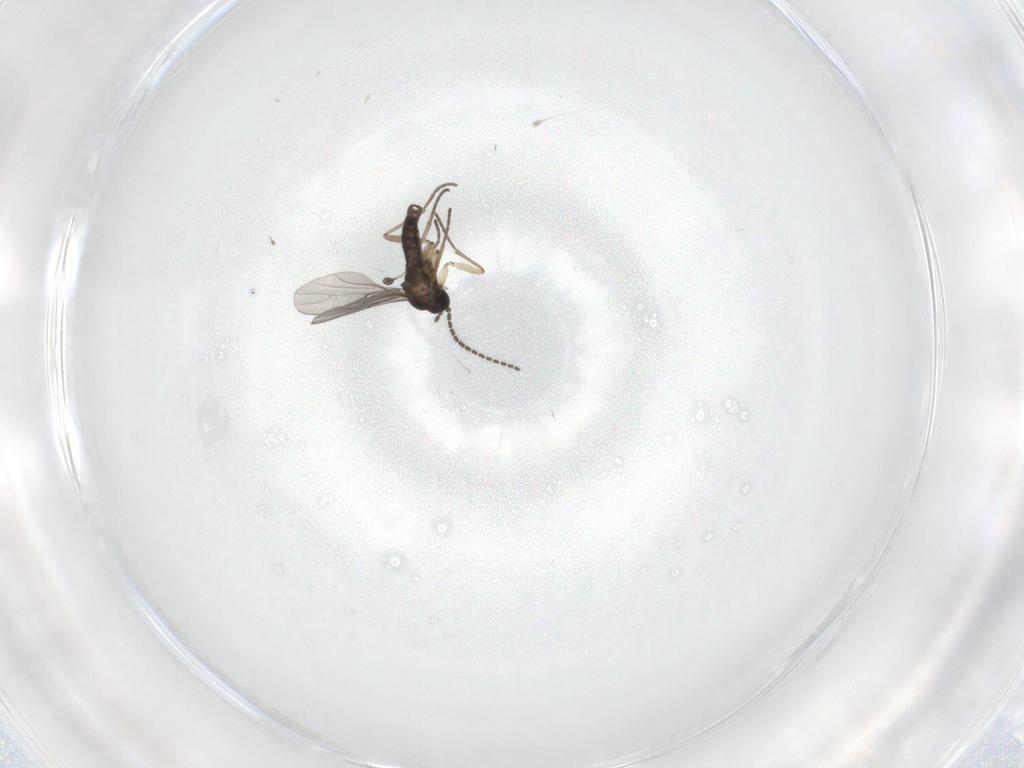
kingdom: Animalia
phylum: Arthropoda
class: Insecta
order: Diptera
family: Sciaridae
